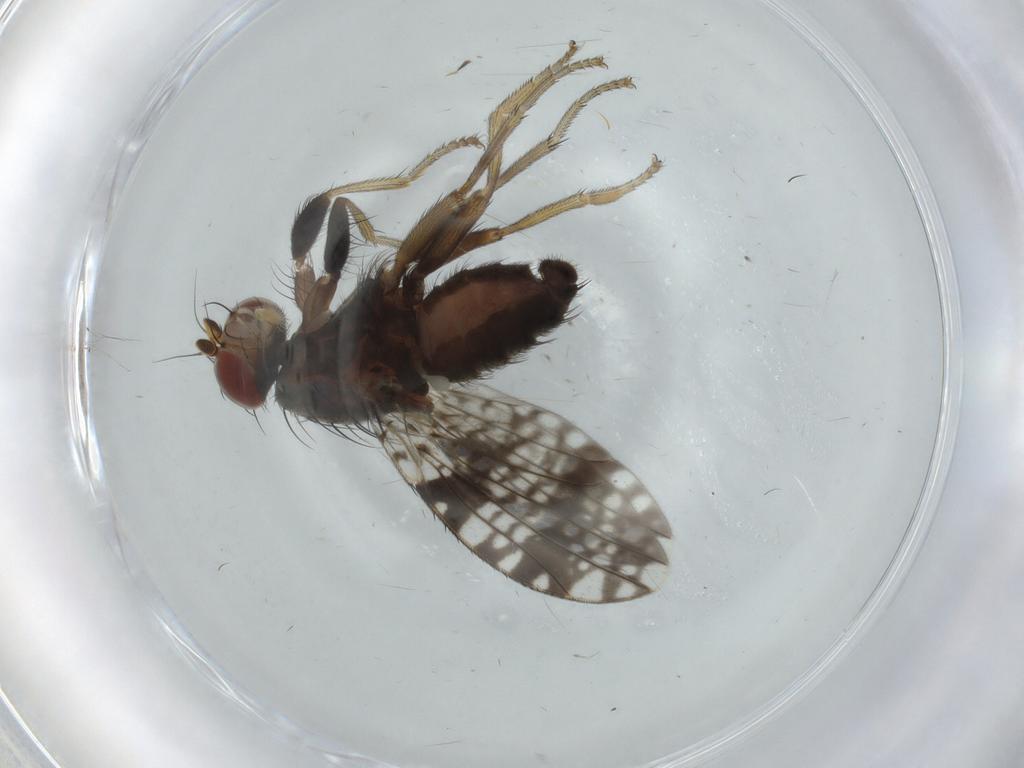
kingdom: Animalia
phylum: Arthropoda
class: Insecta
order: Diptera
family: Tephritidae
